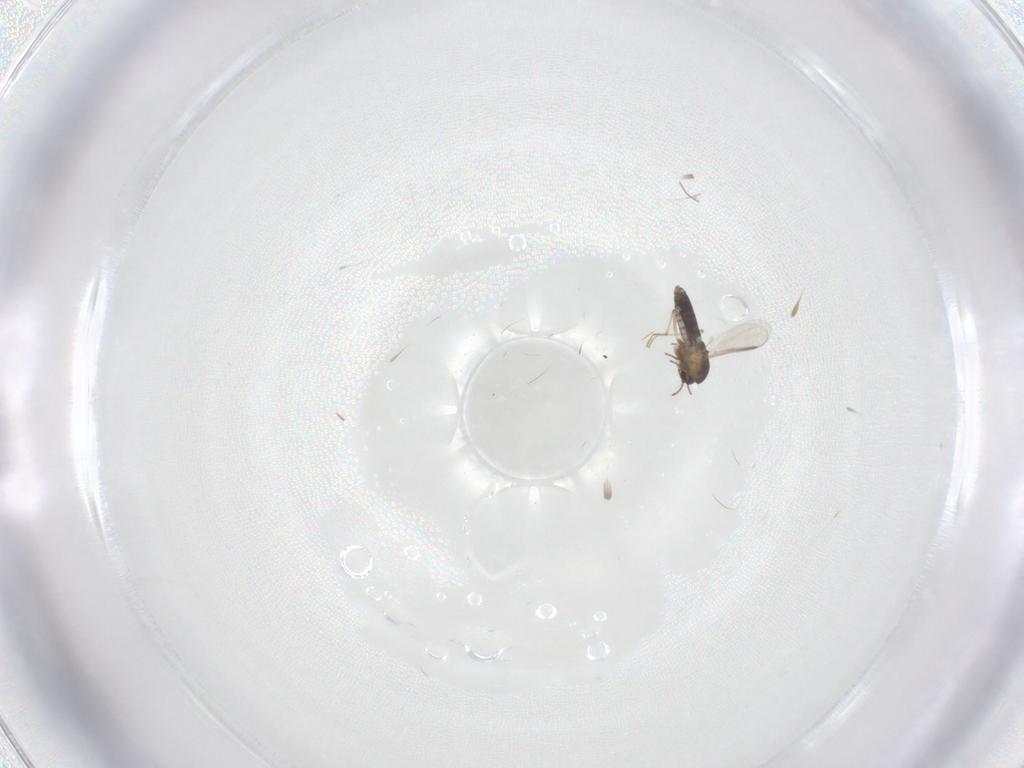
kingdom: Animalia
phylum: Arthropoda
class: Insecta
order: Diptera
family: Chironomidae
